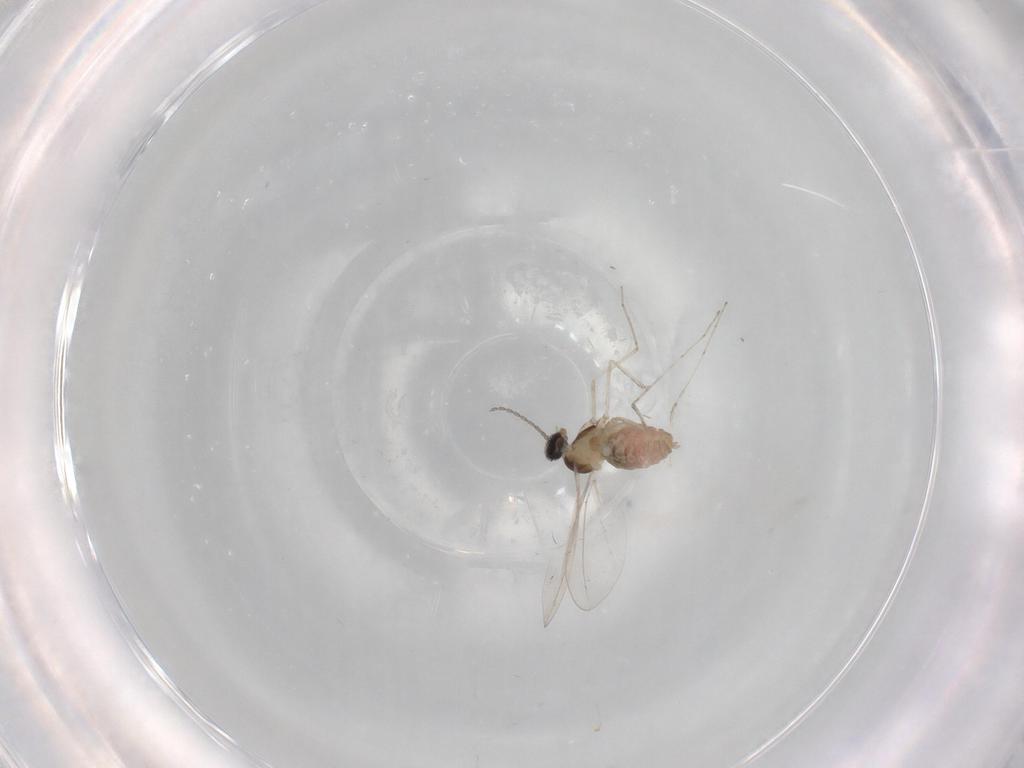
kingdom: Animalia
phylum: Arthropoda
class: Insecta
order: Diptera
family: Cecidomyiidae
